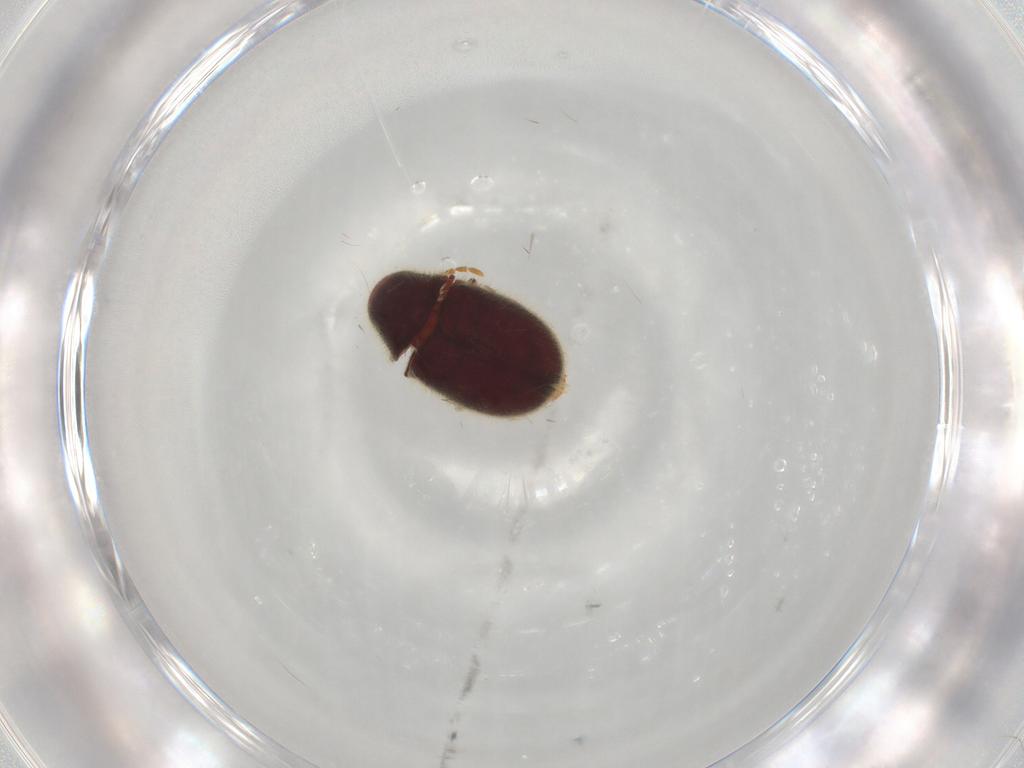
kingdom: Animalia
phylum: Arthropoda
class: Insecta
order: Coleoptera
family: Ptinidae
